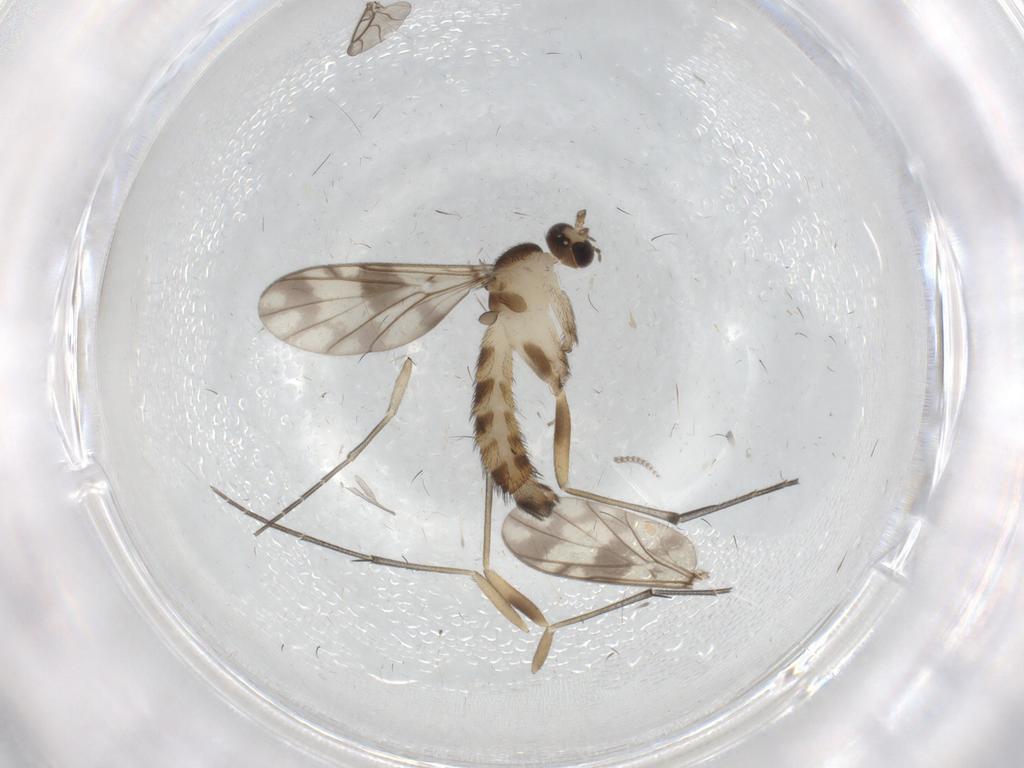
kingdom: Animalia
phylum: Arthropoda
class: Insecta
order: Diptera
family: Keroplatidae
